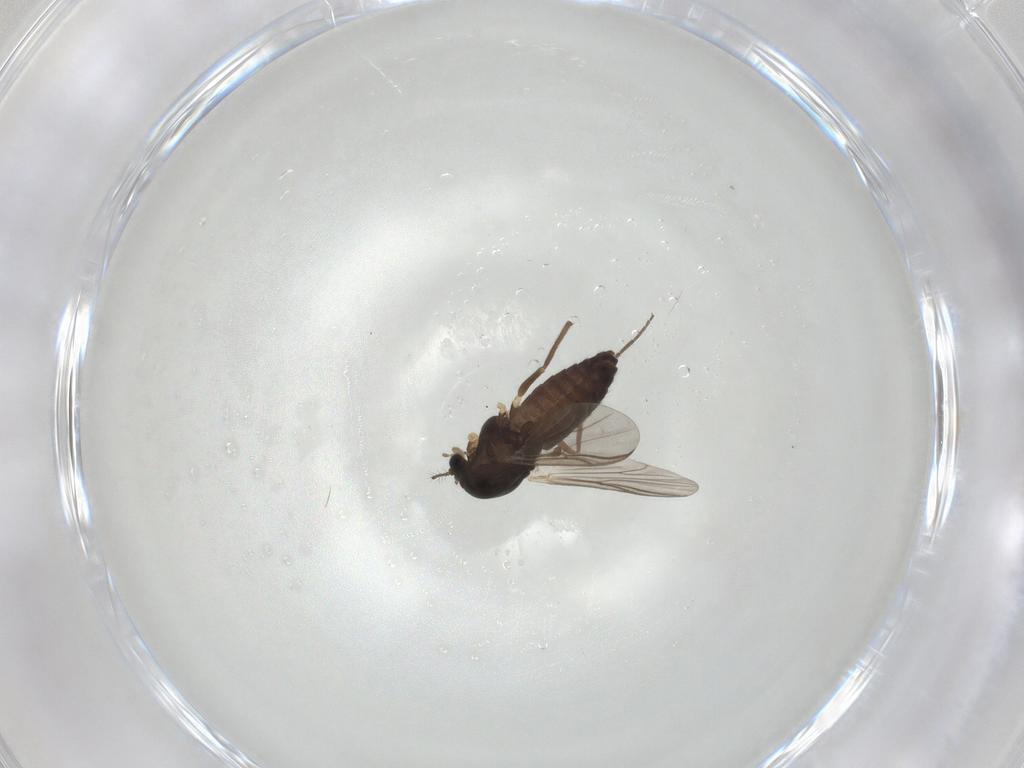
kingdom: Animalia
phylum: Arthropoda
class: Insecta
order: Diptera
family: Chironomidae
